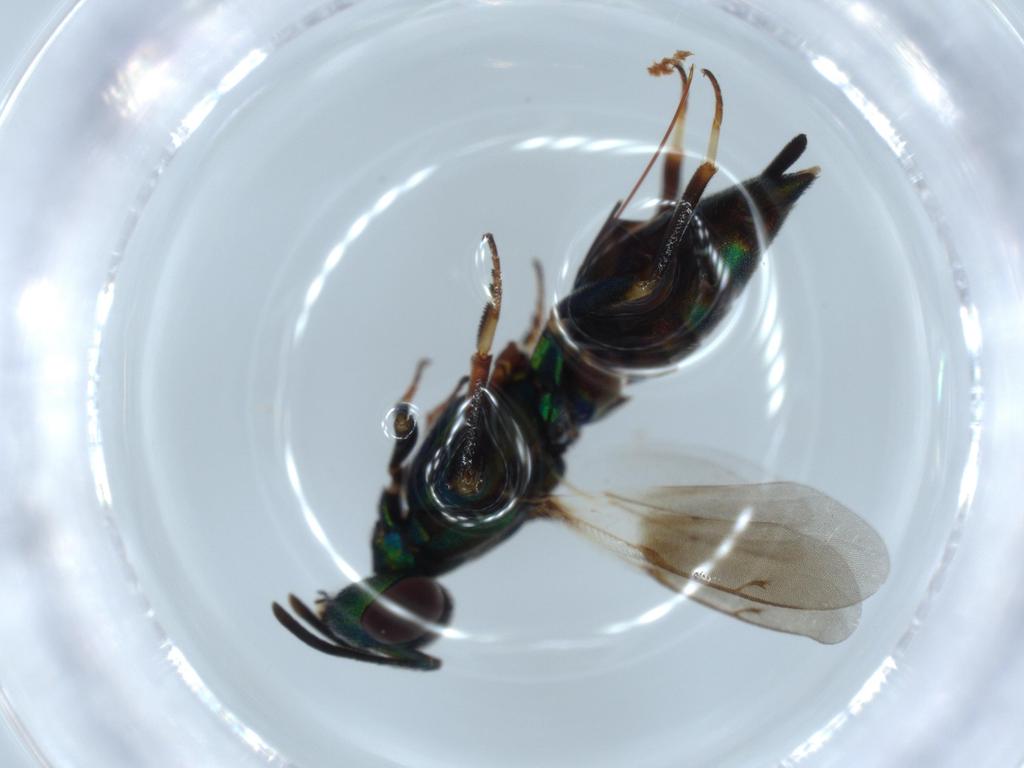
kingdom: Animalia
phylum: Arthropoda
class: Insecta
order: Hymenoptera
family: Eupelmidae
